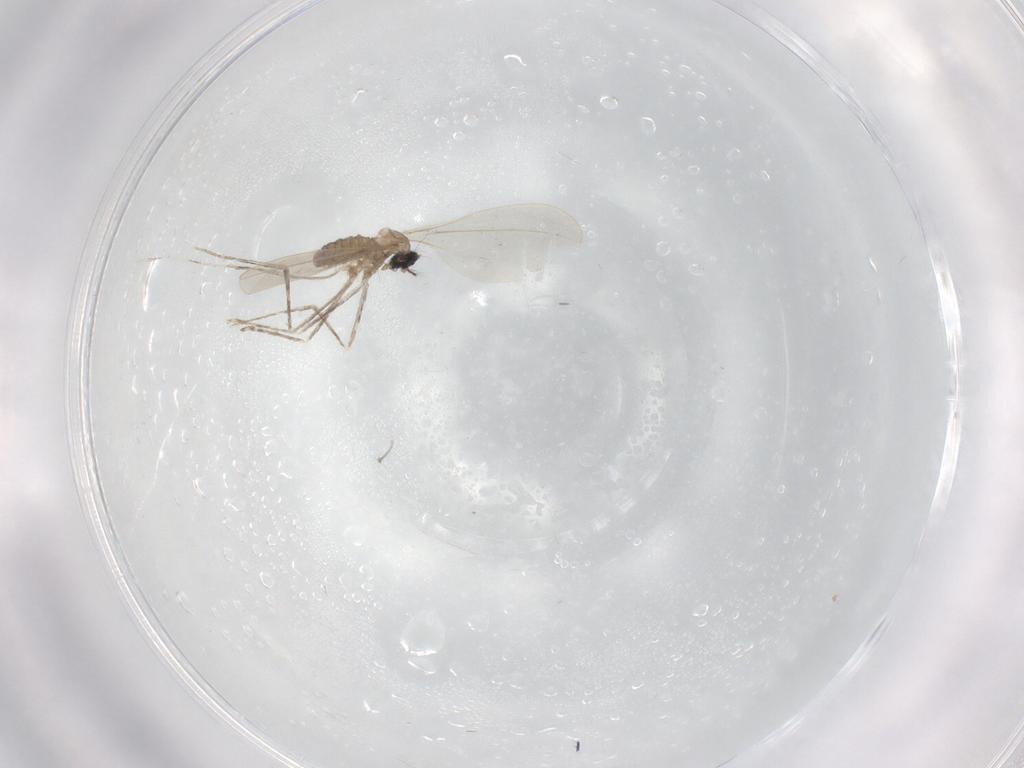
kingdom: Animalia
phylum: Arthropoda
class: Insecta
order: Diptera
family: Cecidomyiidae
